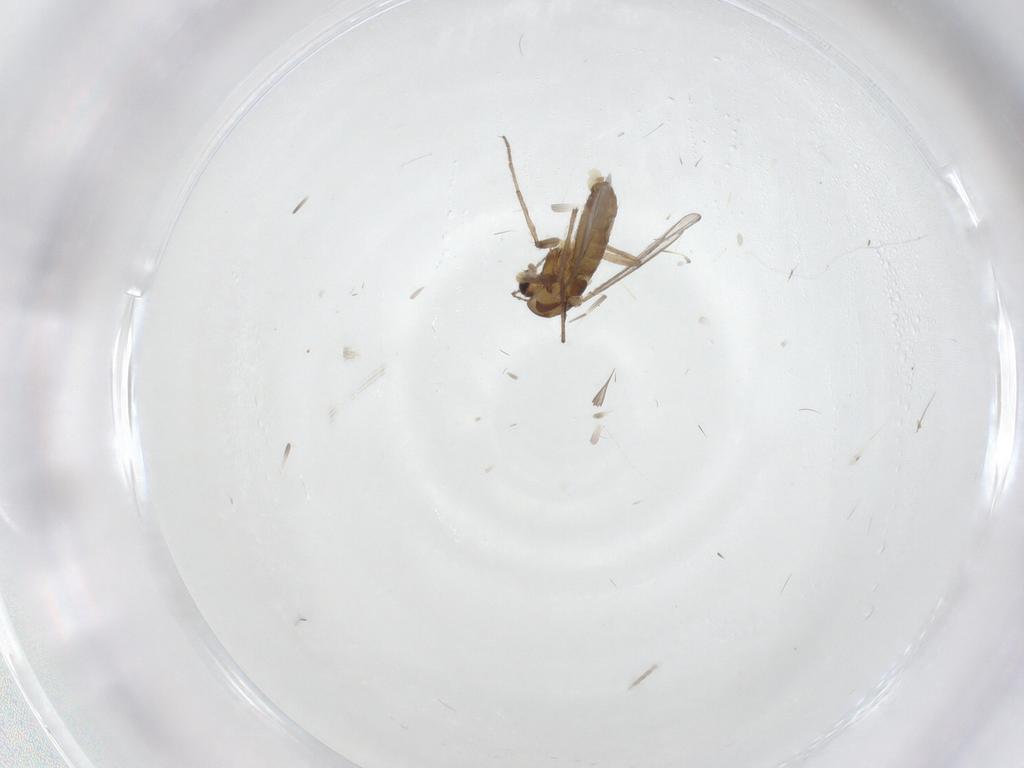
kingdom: Animalia
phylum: Arthropoda
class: Insecta
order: Diptera
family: Chironomidae
